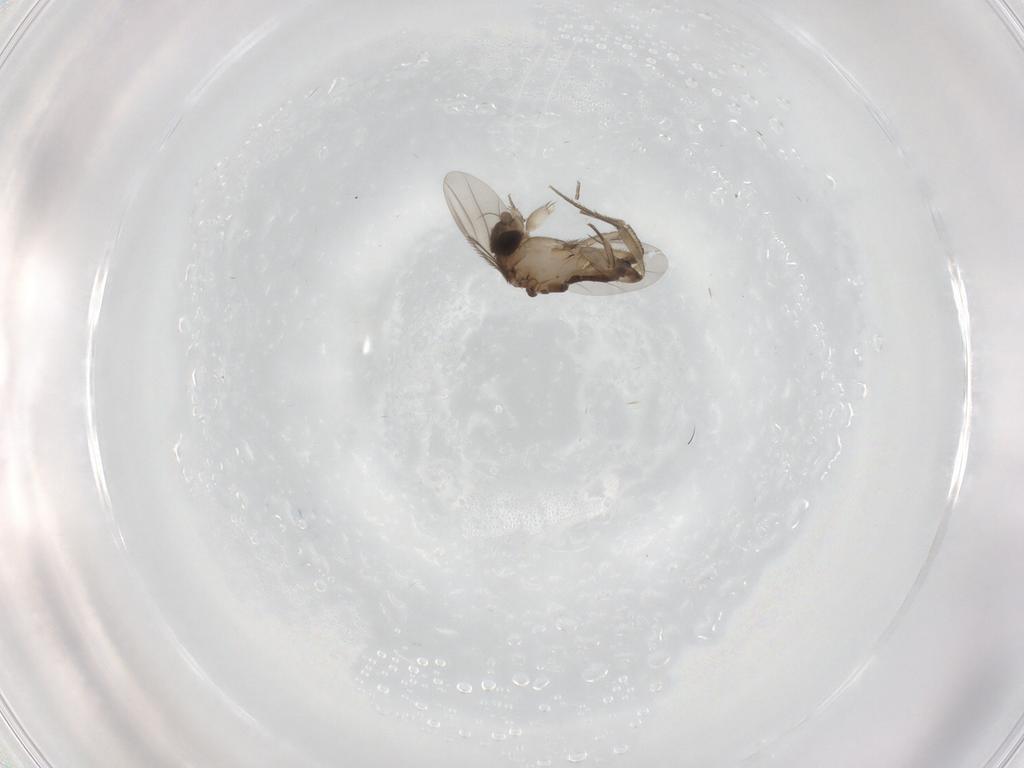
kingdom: Animalia
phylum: Arthropoda
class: Insecta
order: Diptera
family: Phoridae
